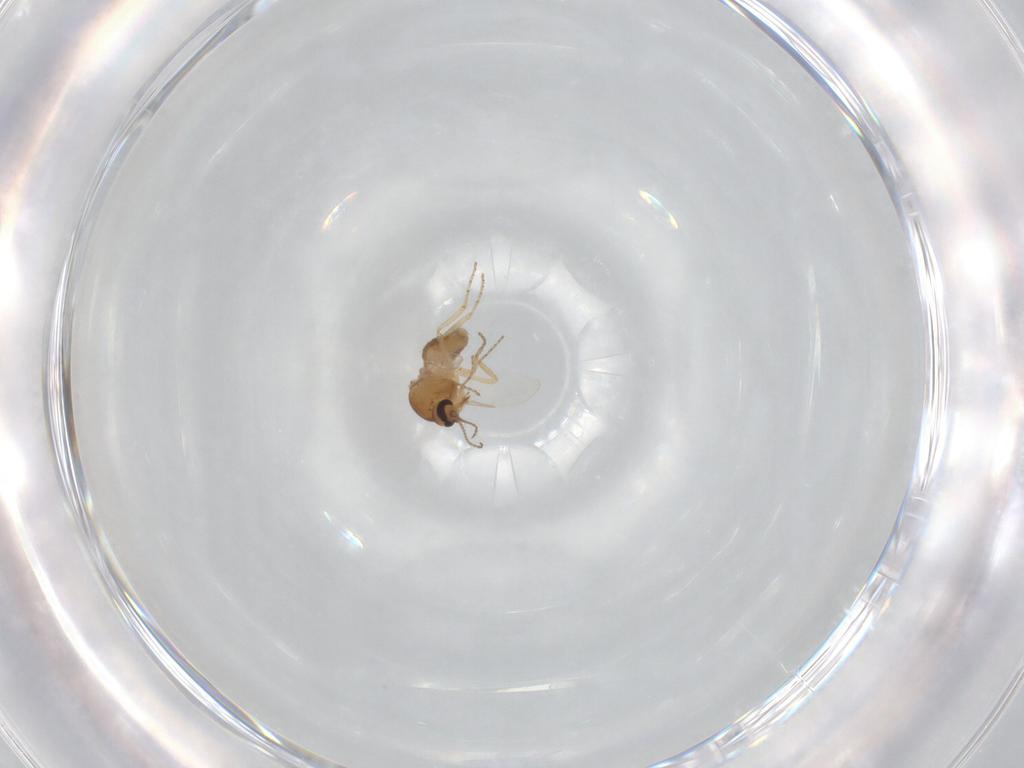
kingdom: Animalia
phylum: Arthropoda
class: Insecta
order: Diptera
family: Ceratopogonidae
